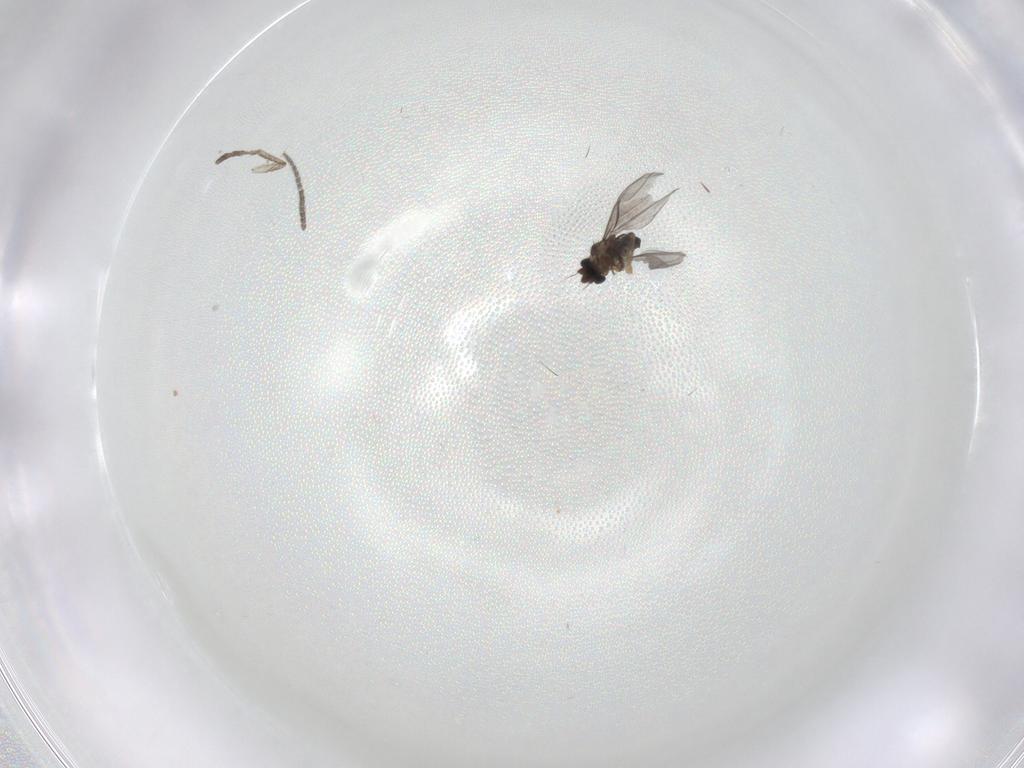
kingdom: Animalia
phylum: Arthropoda
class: Insecta
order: Diptera
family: Sciaridae
